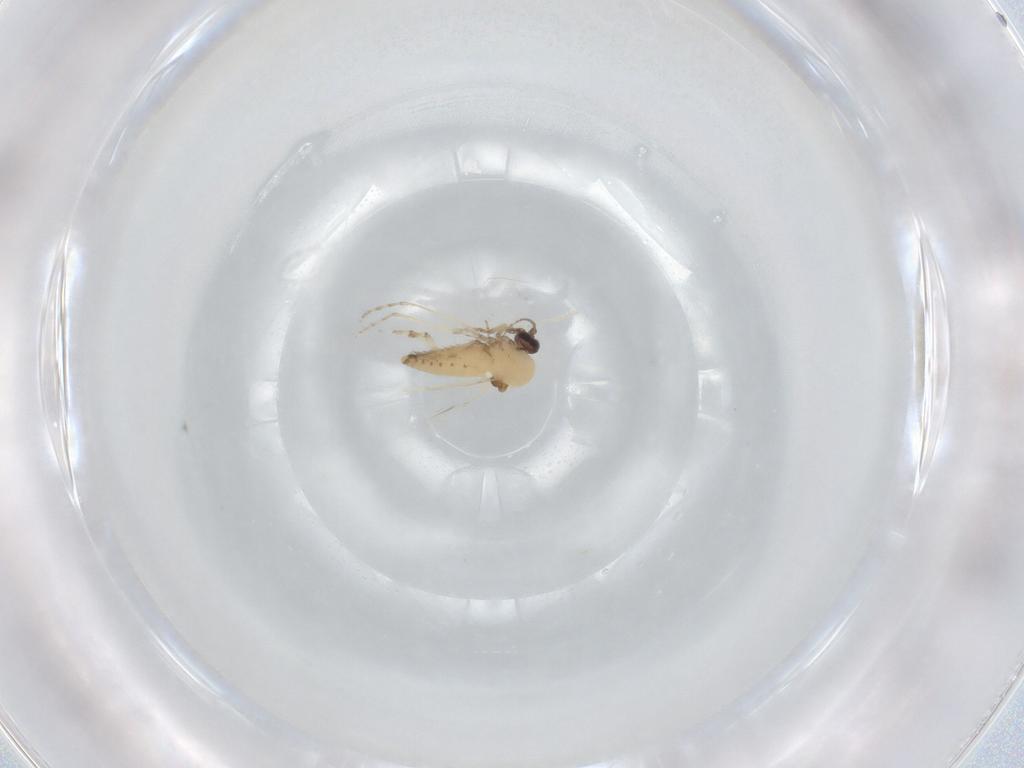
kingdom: Animalia
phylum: Arthropoda
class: Insecta
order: Diptera
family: Ceratopogonidae
